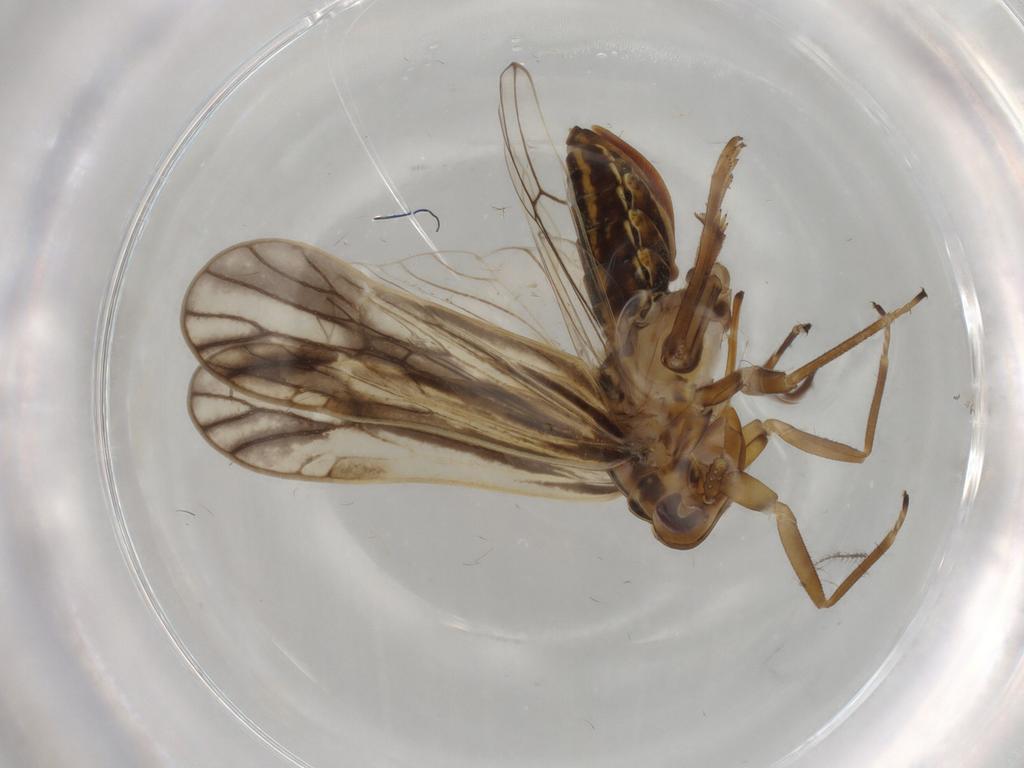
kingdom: Animalia
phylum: Arthropoda
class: Insecta
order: Hemiptera
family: Delphacidae
